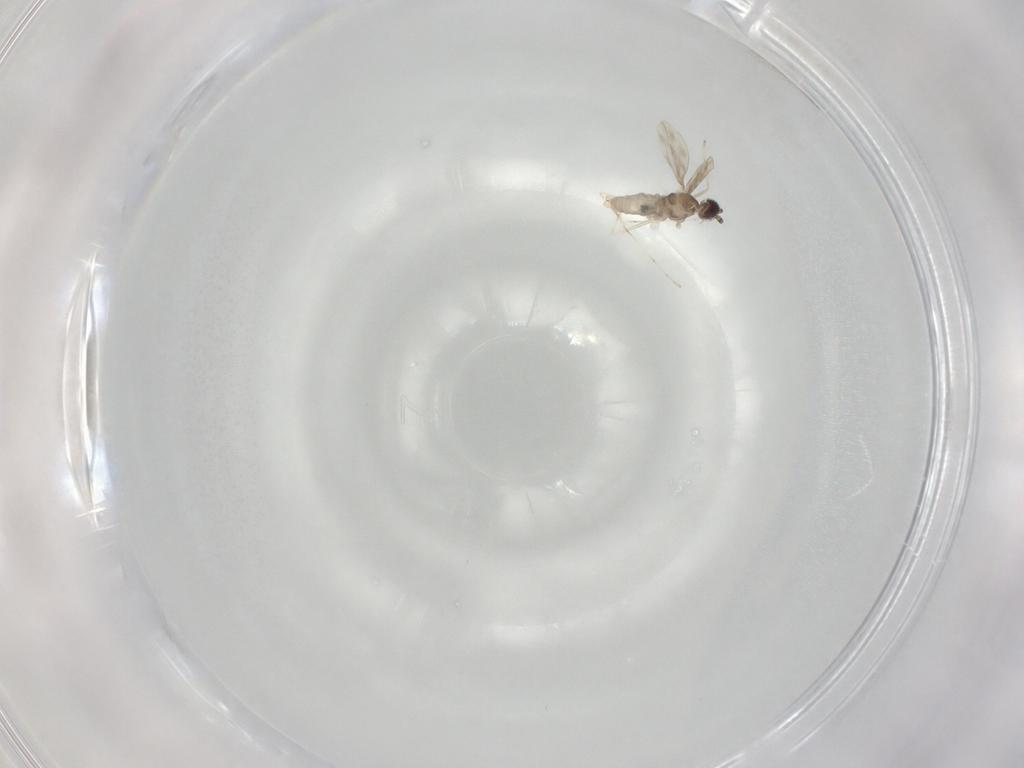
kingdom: Animalia
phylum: Arthropoda
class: Insecta
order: Diptera
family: Cecidomyiidae
